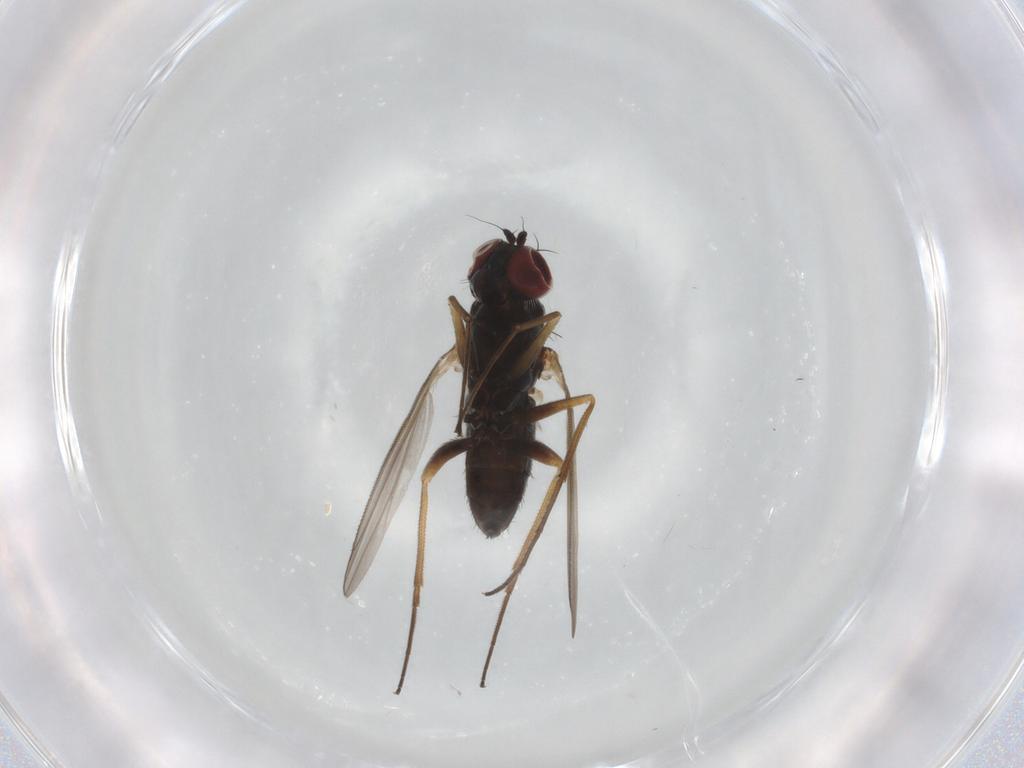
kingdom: Animalia
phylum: Arthropoda
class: Insecta
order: Diptera
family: Dolichopodidae
